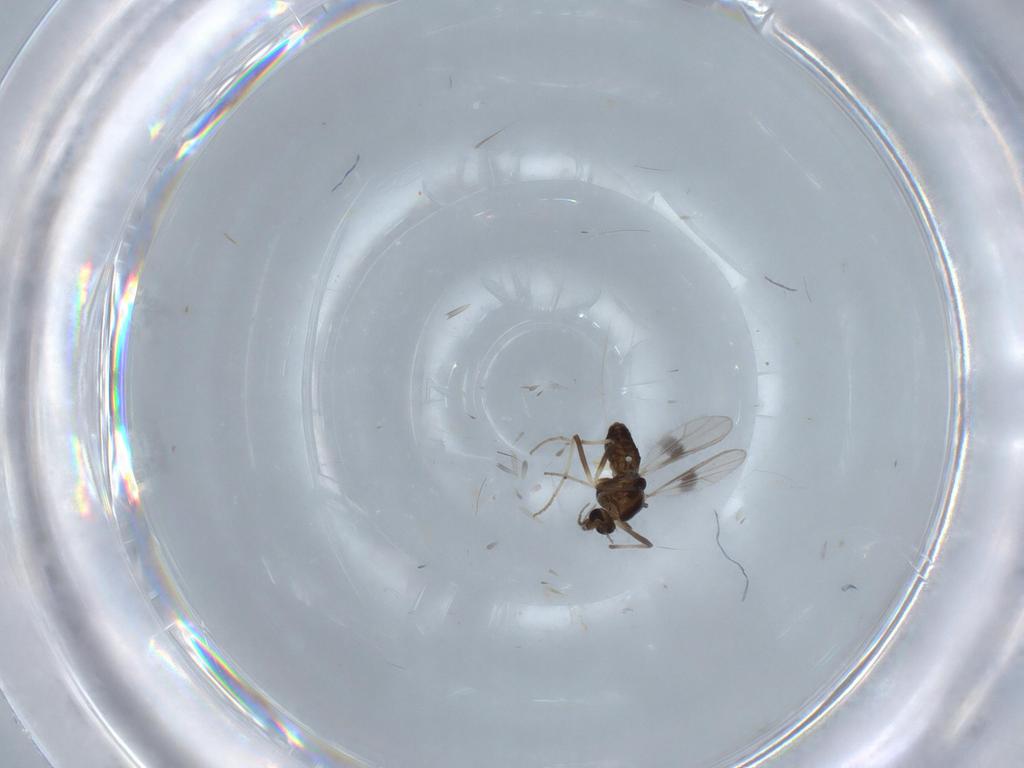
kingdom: Animalia
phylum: Arthropoda
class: Insecta
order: Diptera
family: Chironomidae
